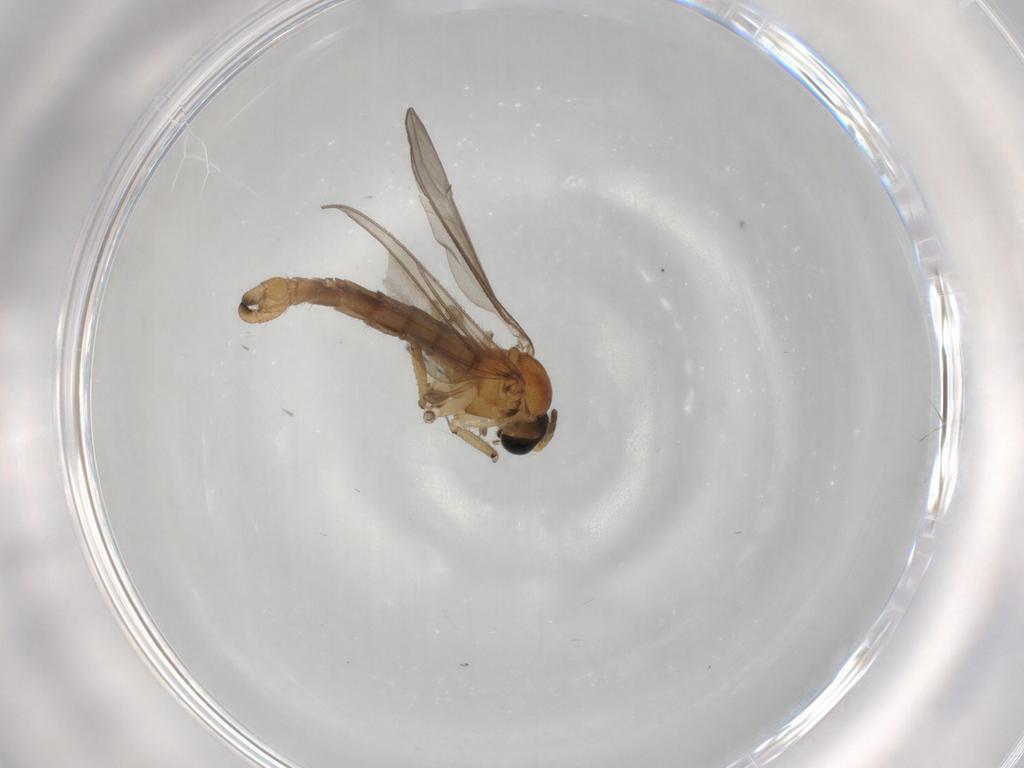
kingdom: Animalia
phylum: Arthropoda
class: Insecta
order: Diptera
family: Sciaridae
